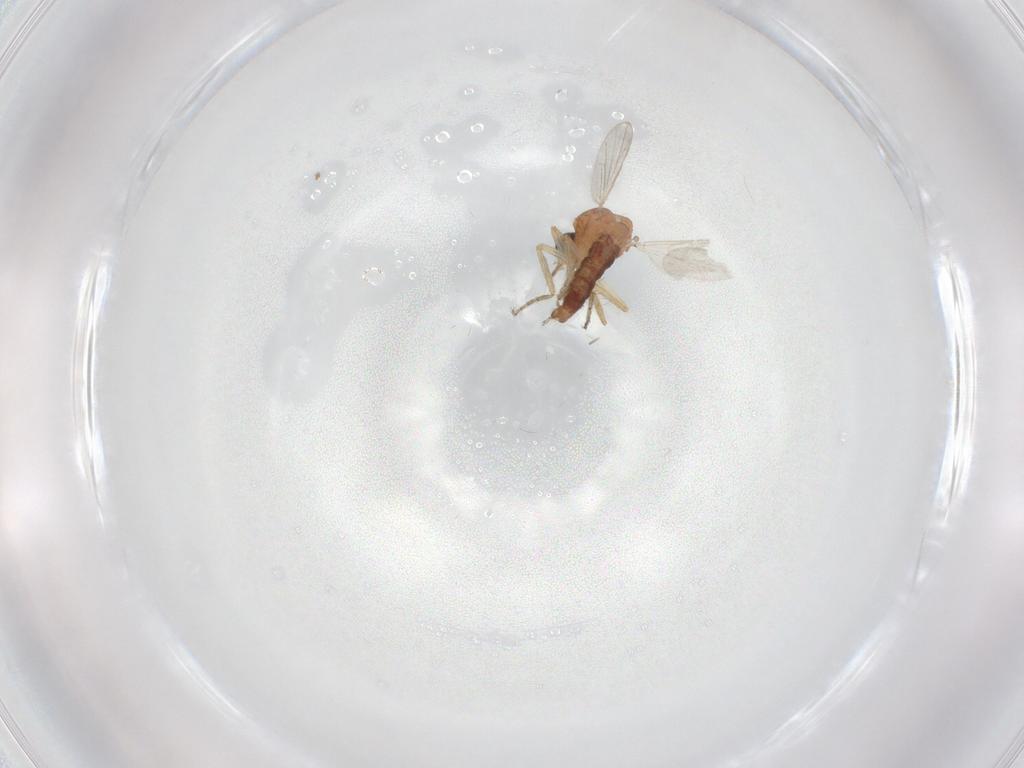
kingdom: Animalia
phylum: Arthropoda
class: Insecta
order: Diptera
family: Ceratopogonidae
